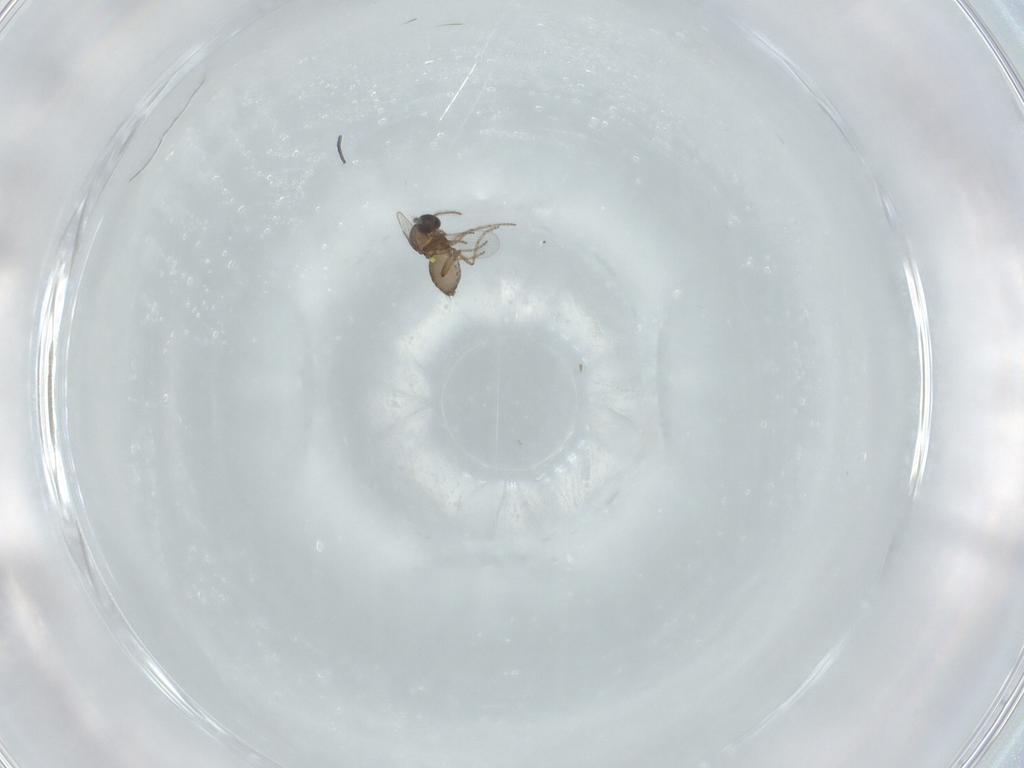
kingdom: Animalia
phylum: Arthropoda
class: Insecta
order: Diptera
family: Ceratopogonidae
